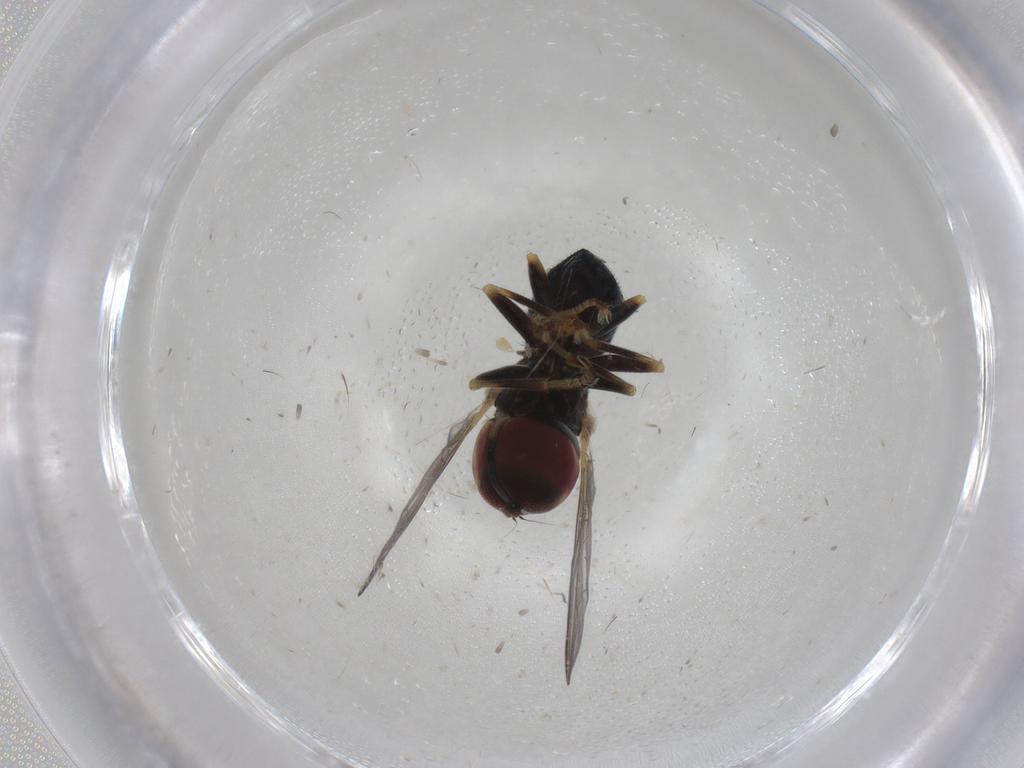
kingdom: Animalia
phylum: Arthropoda
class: Insecta
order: Diptera
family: Pipunculidae
